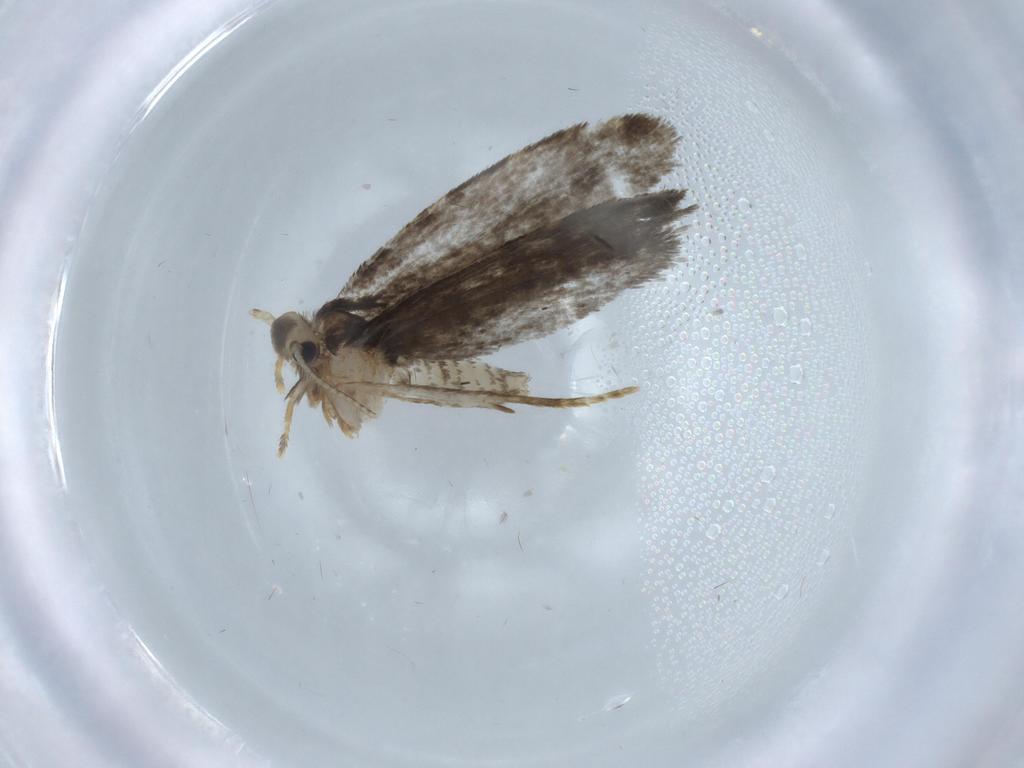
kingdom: Animalia
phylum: Arthropoda
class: Insecta
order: Lepidoptera
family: Psychidae
